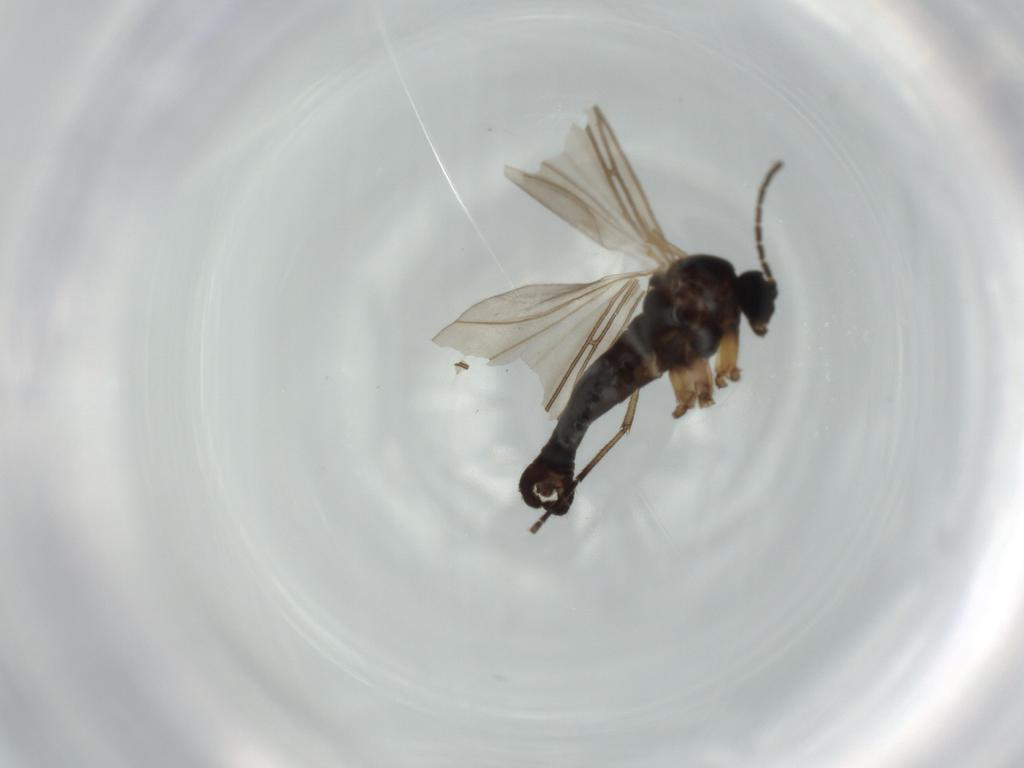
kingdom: Animalia
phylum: Arthropoda
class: Insecta
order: Diptera
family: Sciaridae
